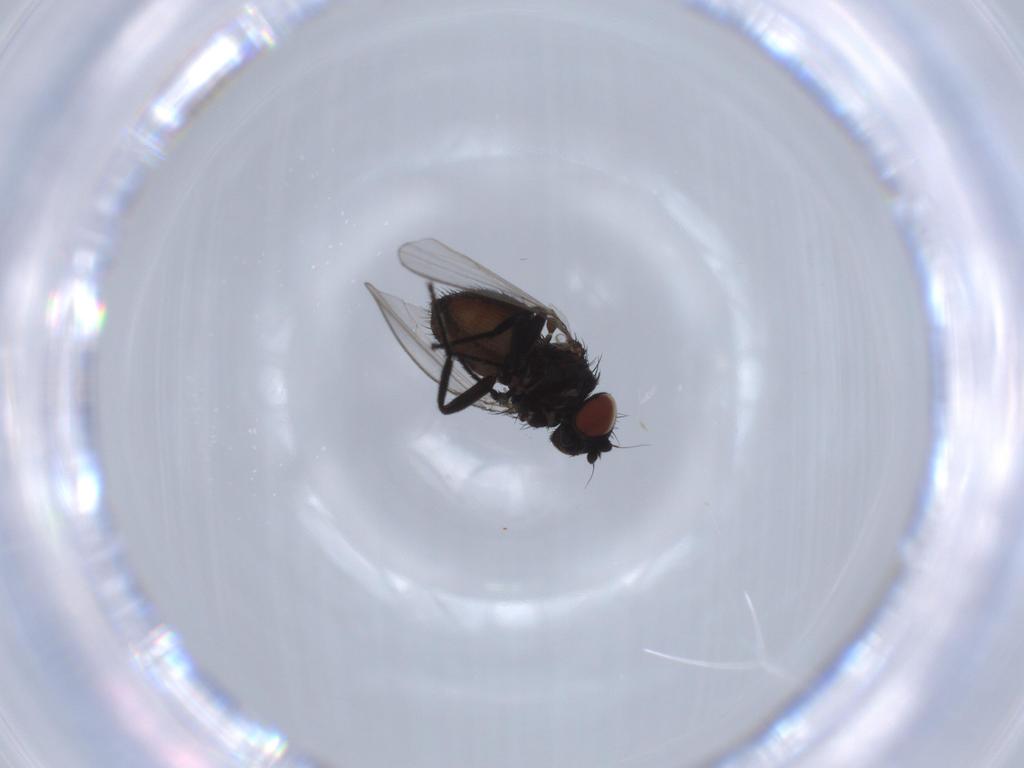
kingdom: Animalia
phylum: Arthropoda
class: Insecta
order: Diptera
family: Milichiidae
